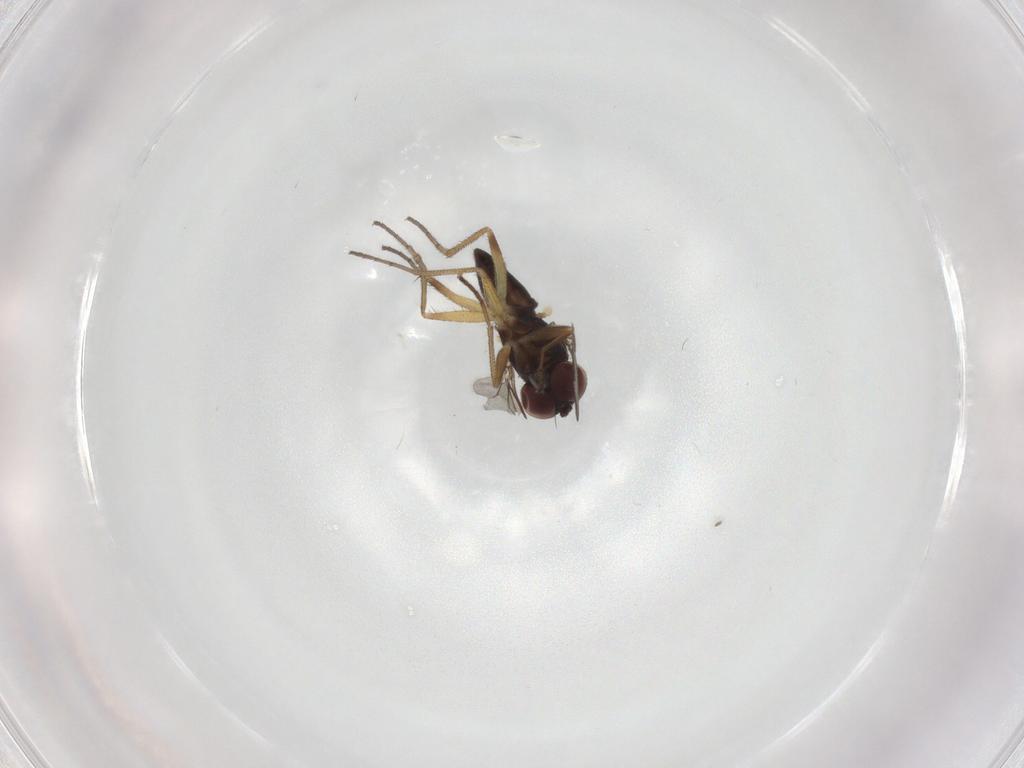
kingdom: Animalia
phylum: Arthropoda
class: Insecta
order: Diptera
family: Dolichopodidae
